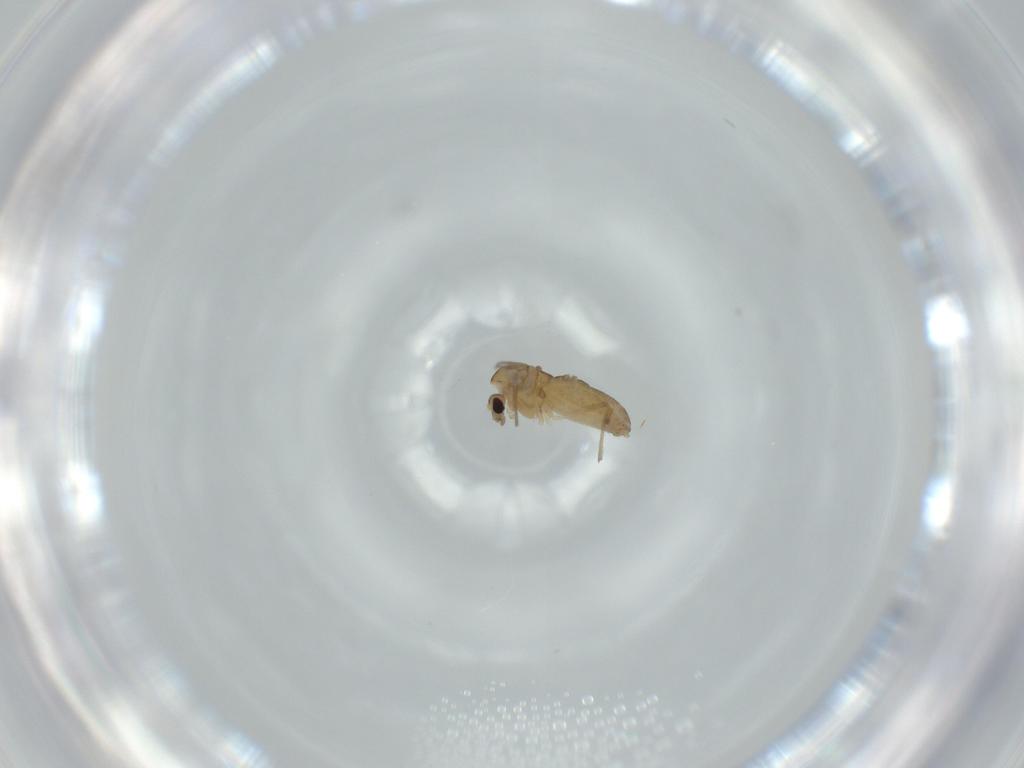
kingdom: Animalia
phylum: Arthropoda
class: Insecta
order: Diptera
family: Chironomidae
